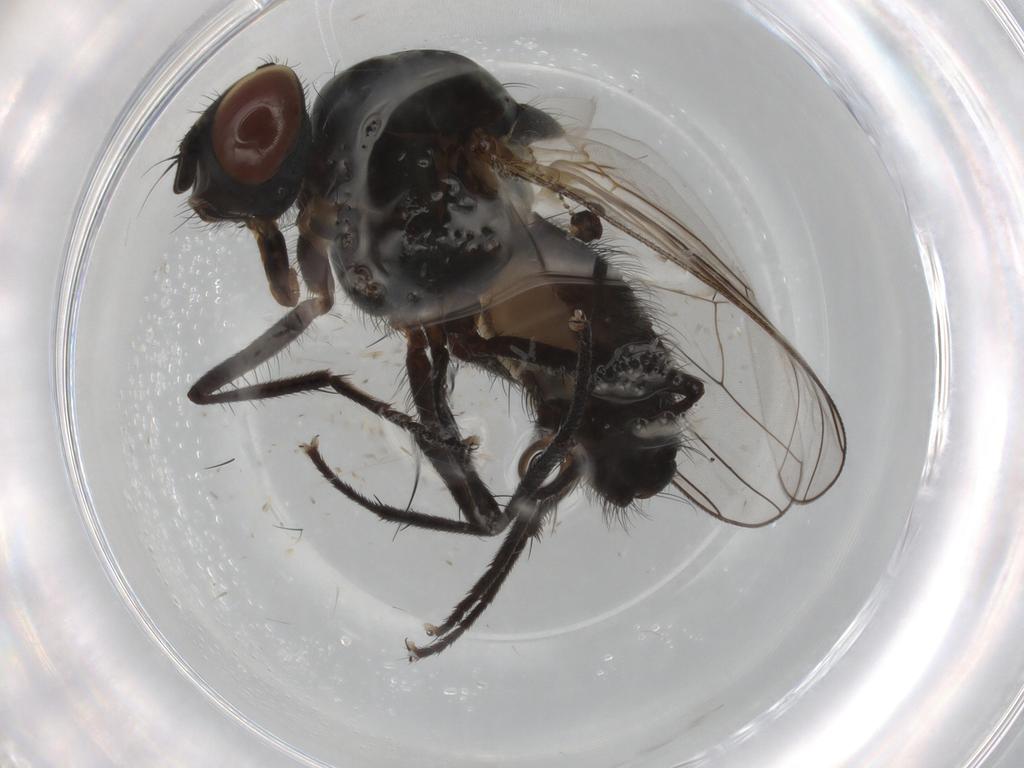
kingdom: Animalia
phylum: Arthropoda
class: Insecta
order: Diptera
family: Anthomyiidae
